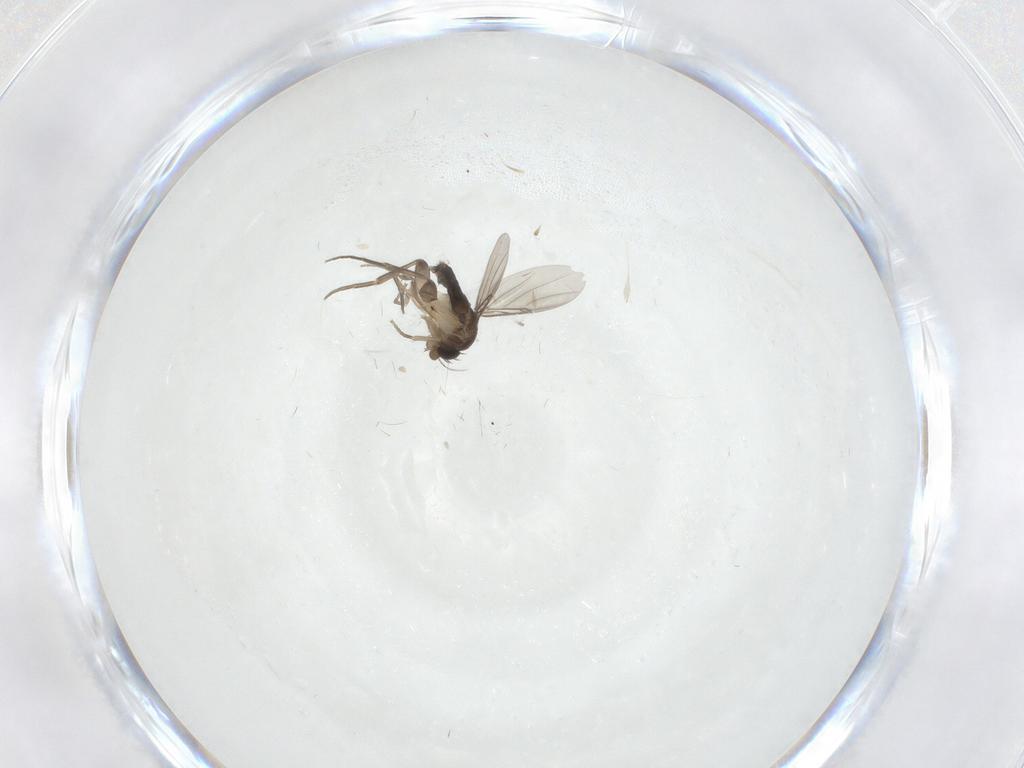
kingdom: Animalia
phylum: Arthropoda
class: Insecta
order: Diptera
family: Phoridae
